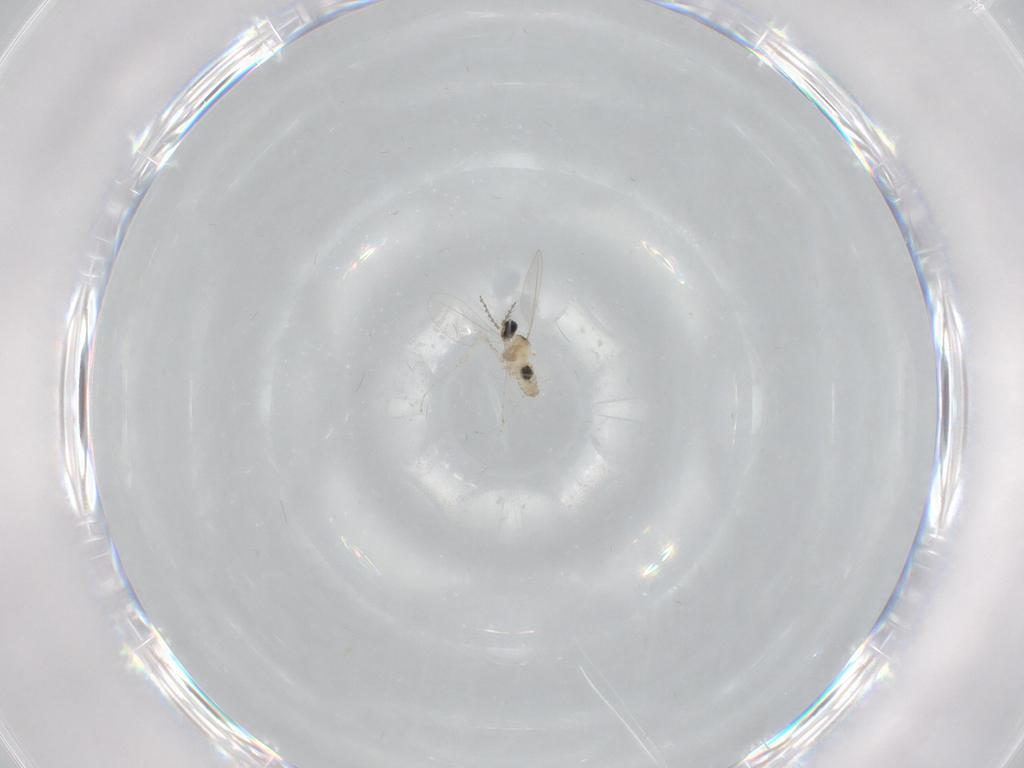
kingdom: Animalia
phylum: Arthropoda
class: Insecta
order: Diptera
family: Cecidomyiidae
